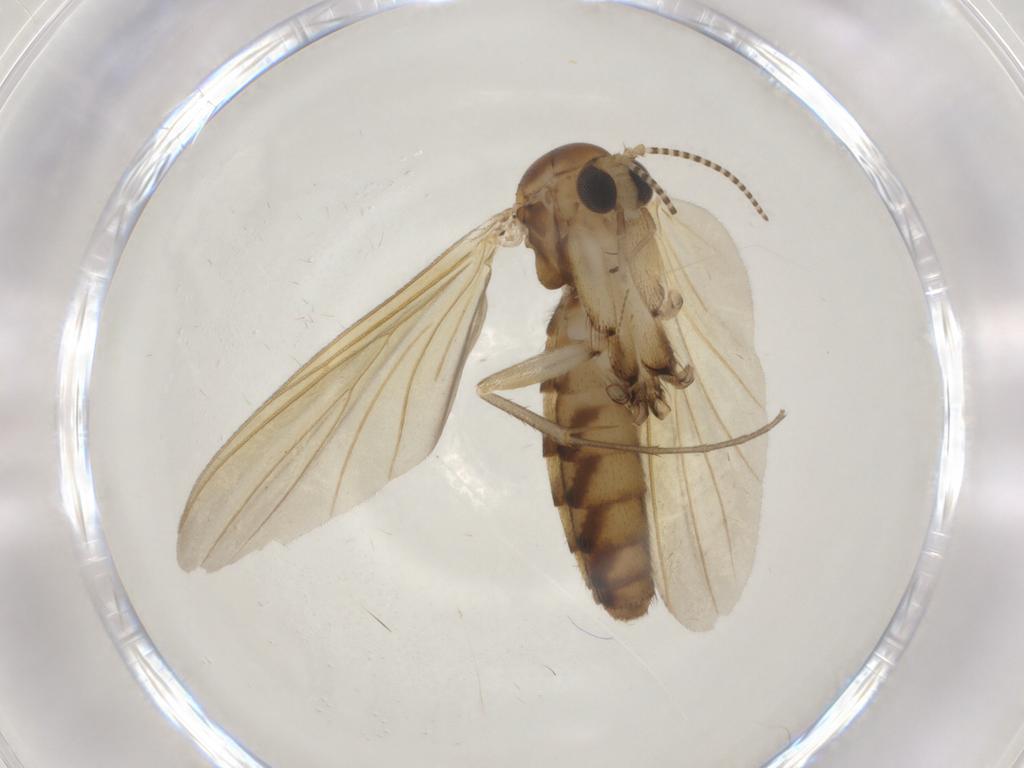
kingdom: Animalia
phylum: Arthropoda
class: Insecta
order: Diptera
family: Mycetophilidae
